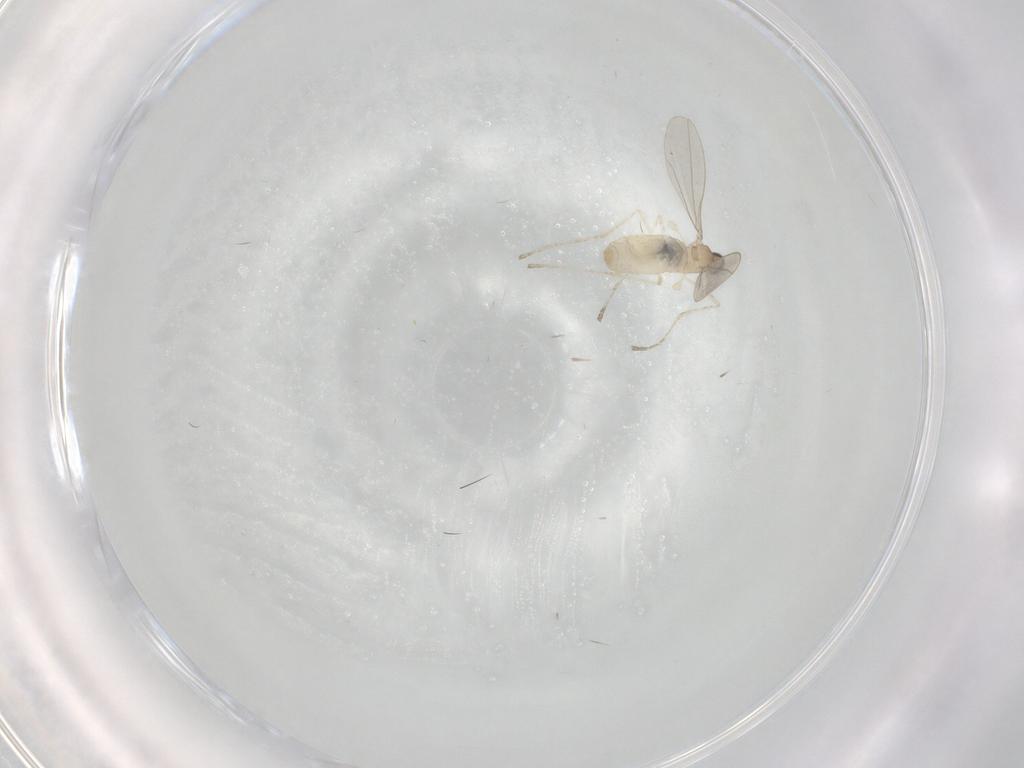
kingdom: Animalia
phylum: Arthropoda
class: Insecta
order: Diptera
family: Cecidomyiidae
